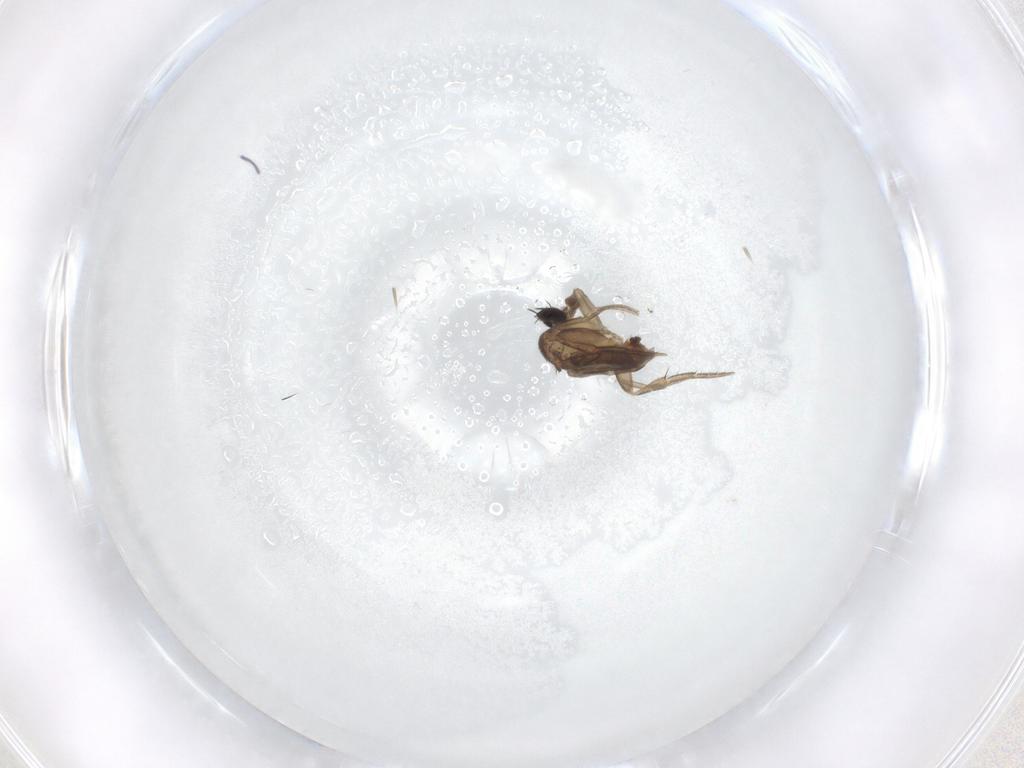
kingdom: Animalia
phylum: Arthropoda
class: Insecta
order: Diptera
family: Phoridae
